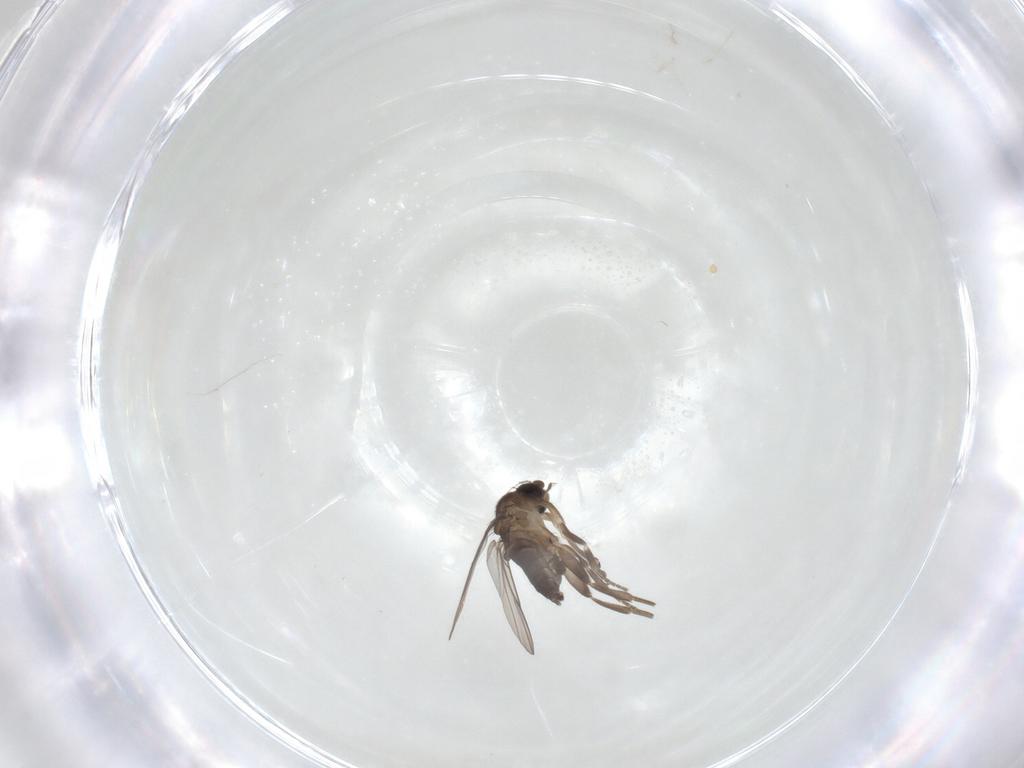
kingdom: Animalia
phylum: Arthropoda
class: Insecta
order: Diptera
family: Phoridae
